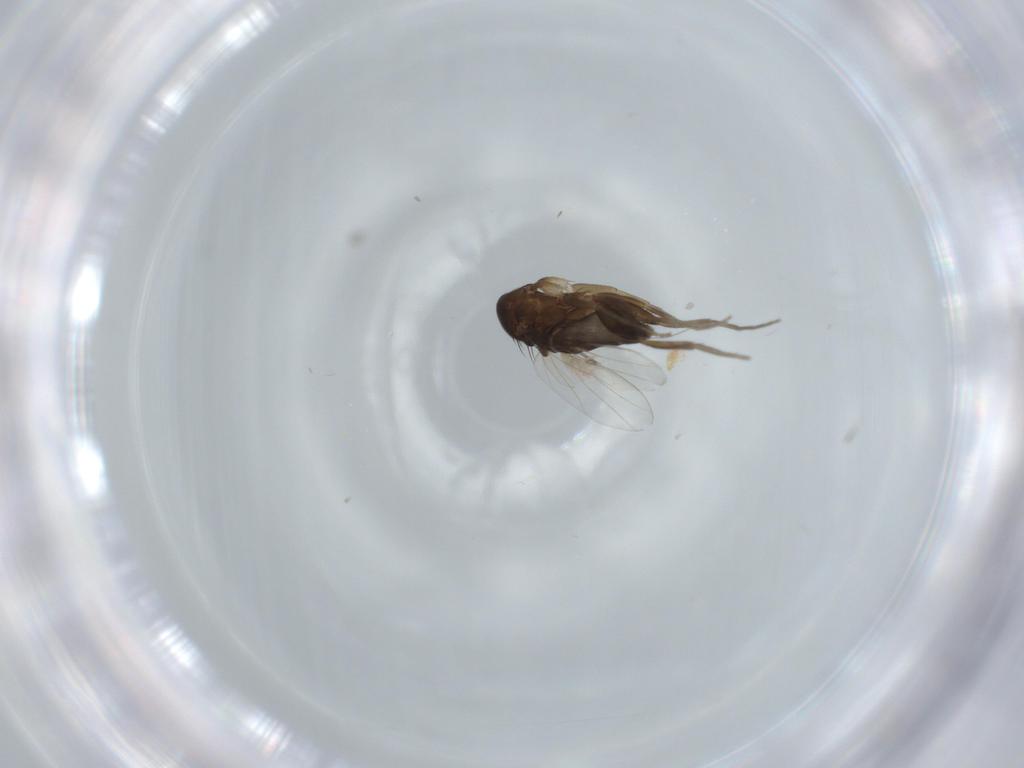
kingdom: Animalia
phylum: Arthropoda
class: Insecta
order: Diptera
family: Phoridae
